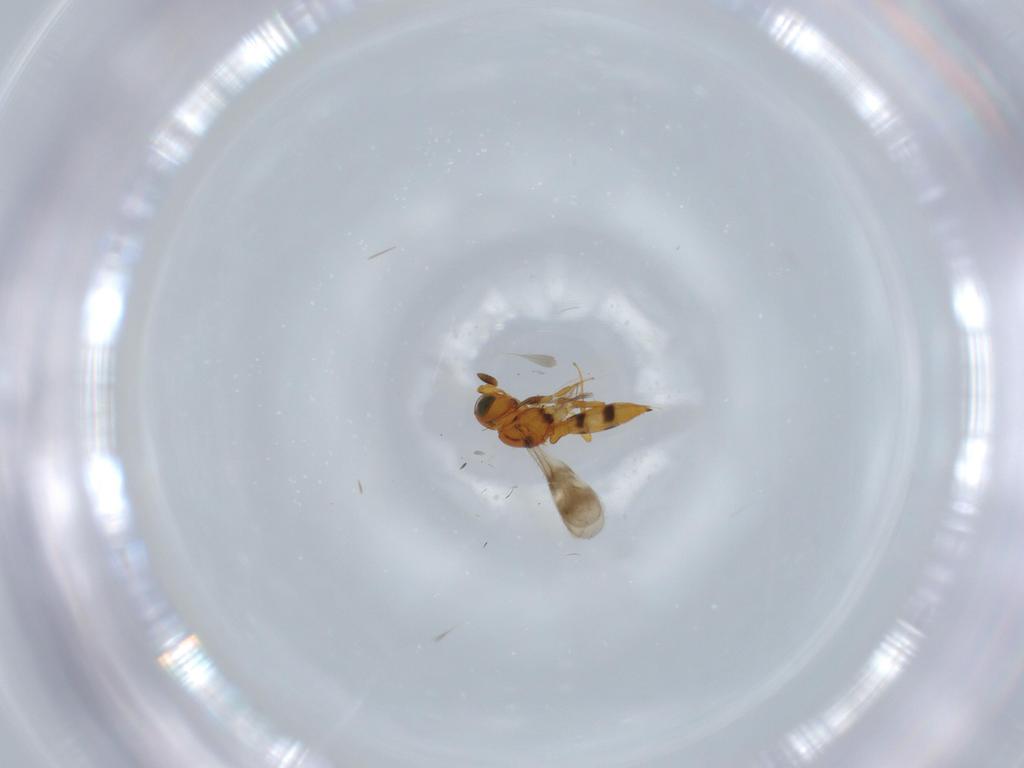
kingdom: Animalia
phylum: Arthropoda
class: Insecta
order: Hymenoptera
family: Scelionidae
